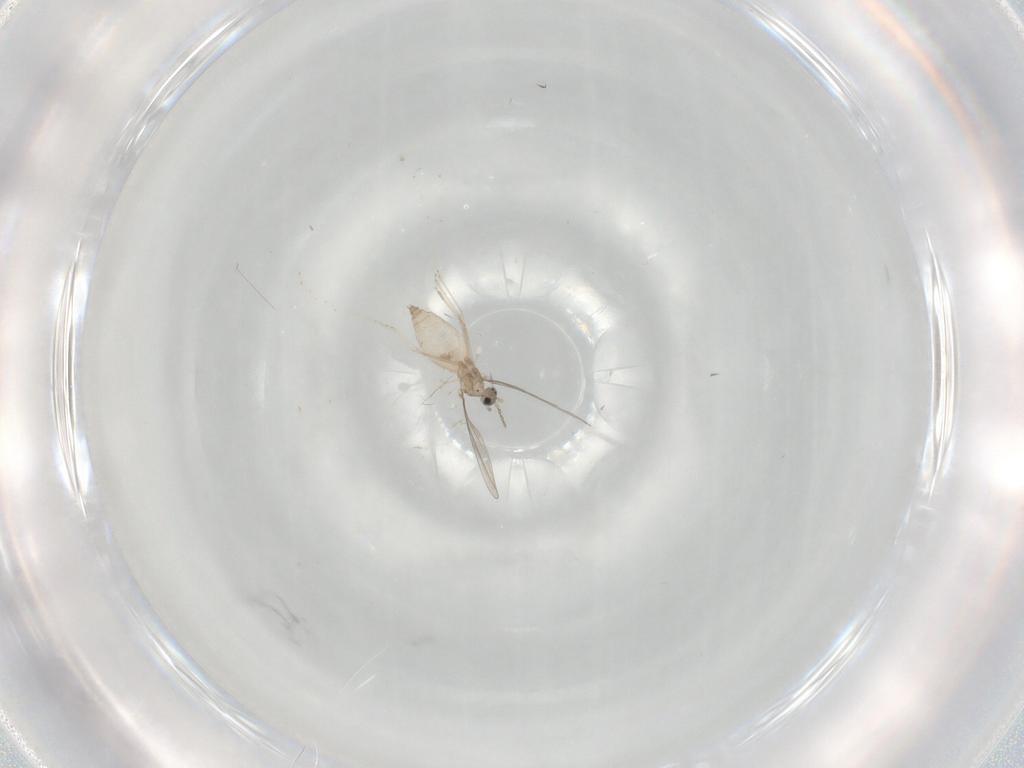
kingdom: Animalia
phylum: Arthropoda
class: Insecta
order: Diptera
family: Cecidomyiidae
